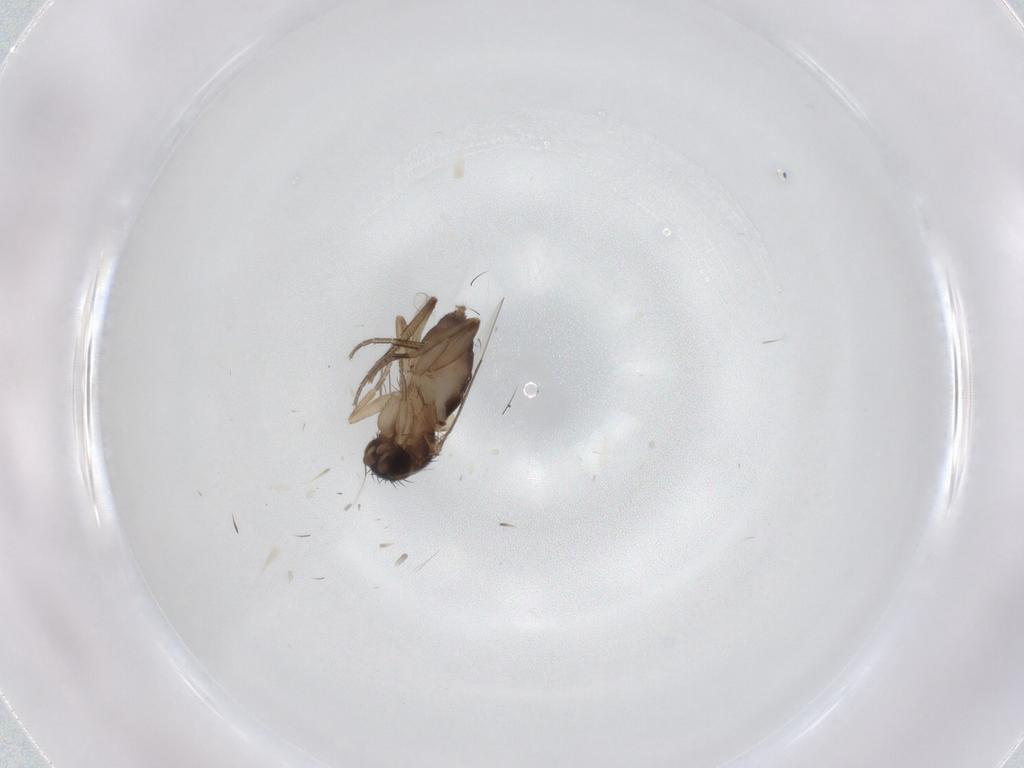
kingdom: Animalia
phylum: Arthropoda
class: Insecta
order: Diptera
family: Phoridae
